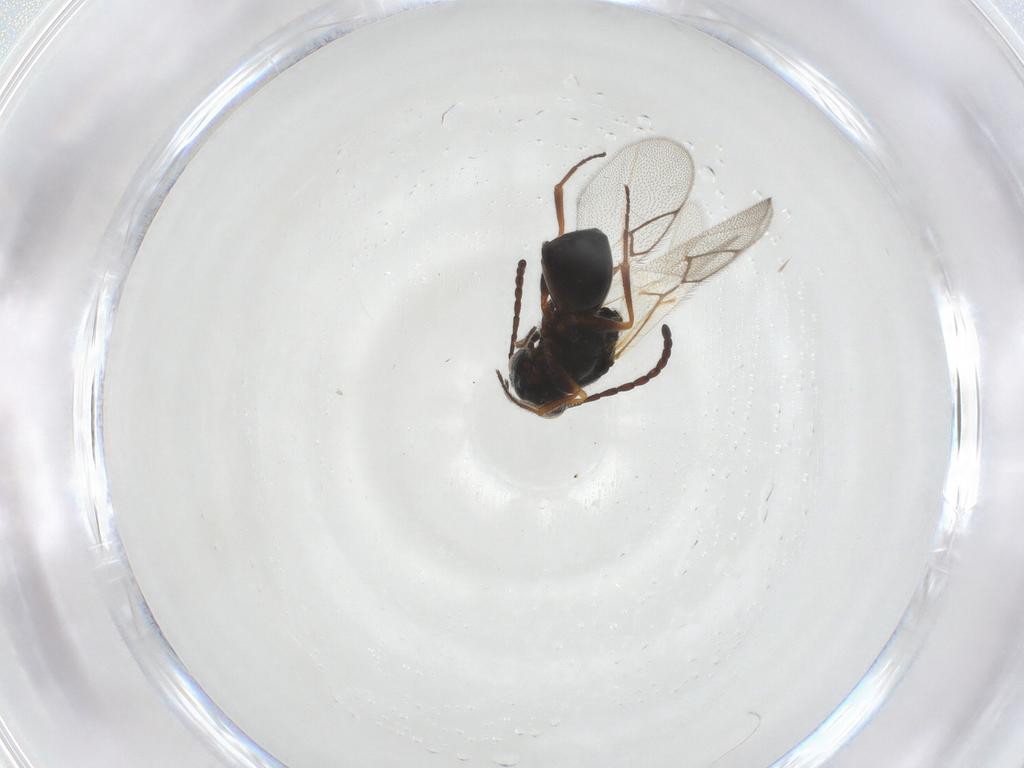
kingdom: Animalia
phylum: Arthropoda
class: Insecta
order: Hymenoptera
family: Figitidae
